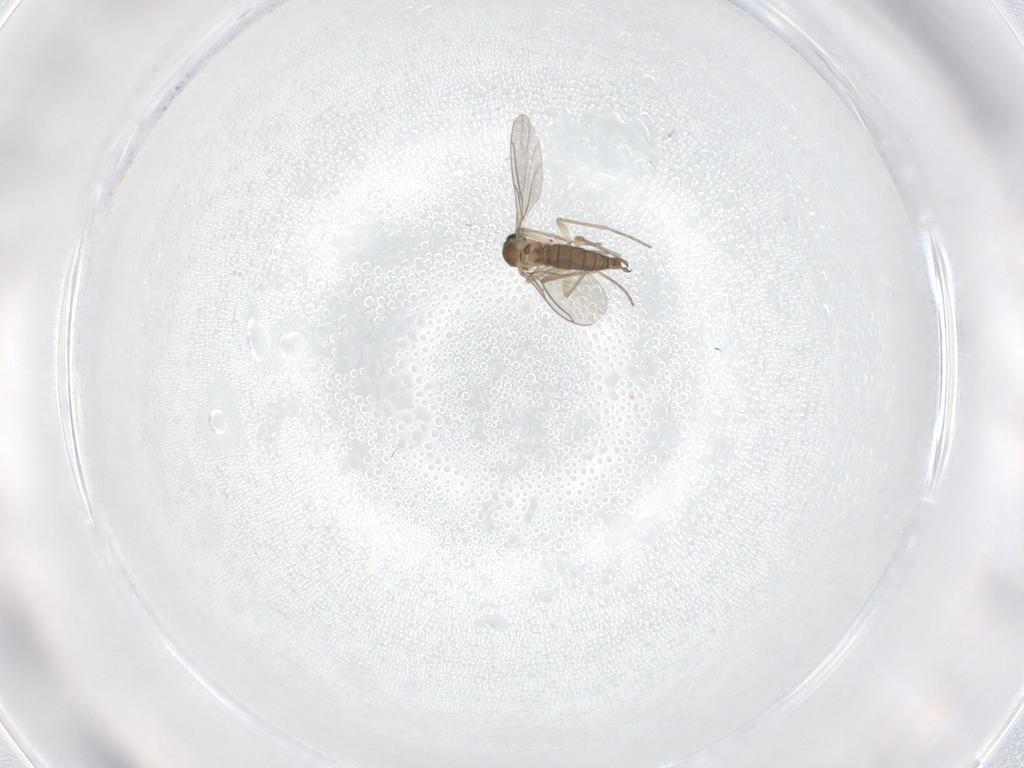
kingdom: Animalia
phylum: Arthropoda
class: Insecta
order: Diptera
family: Sciaridae
